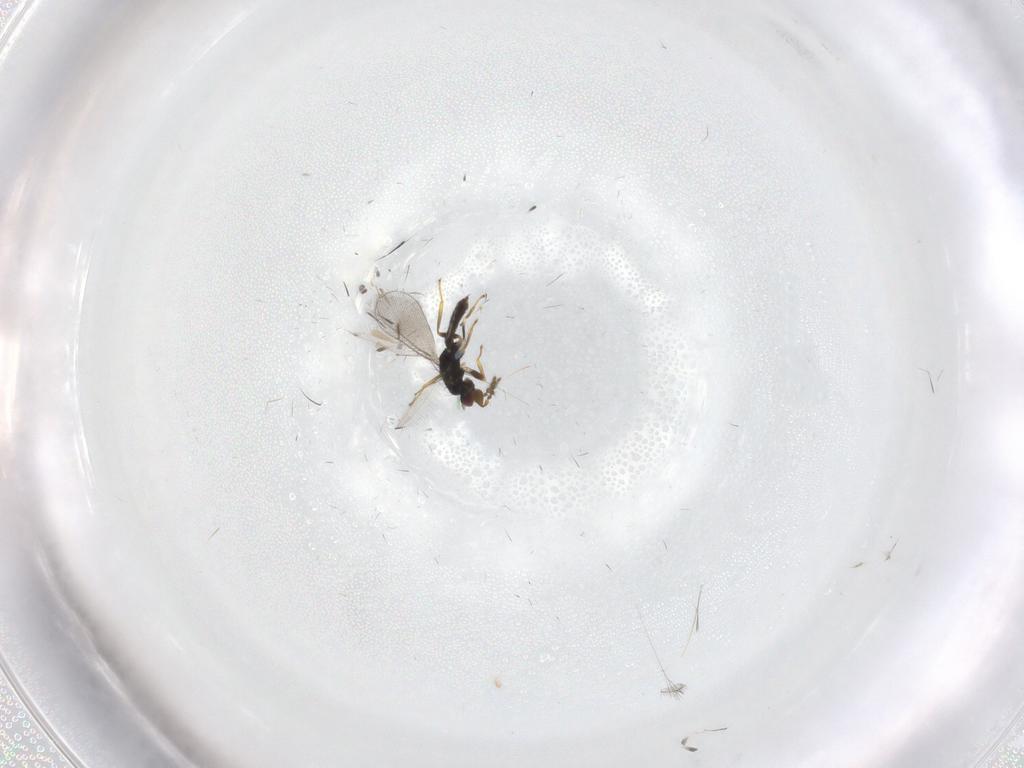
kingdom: Animalia
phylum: Arthropoda
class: Insecta
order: Hymenoptera
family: Eulophidae
